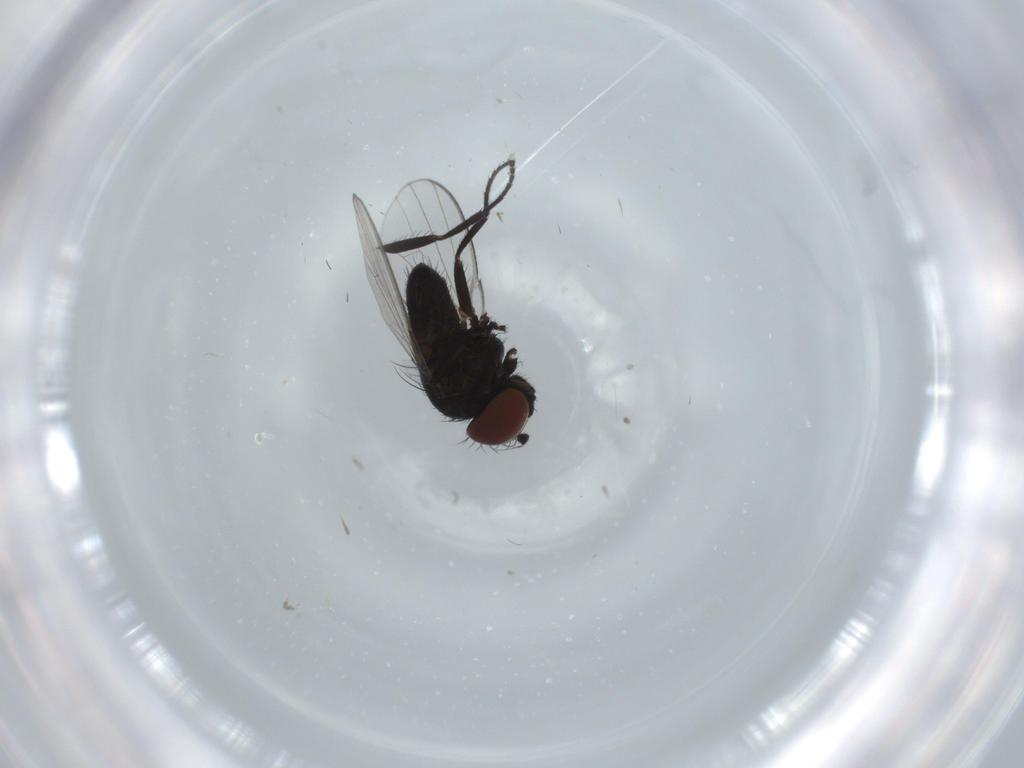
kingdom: Animalia
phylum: Arthropoda
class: Insecta
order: Diptera
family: Milichiidae
